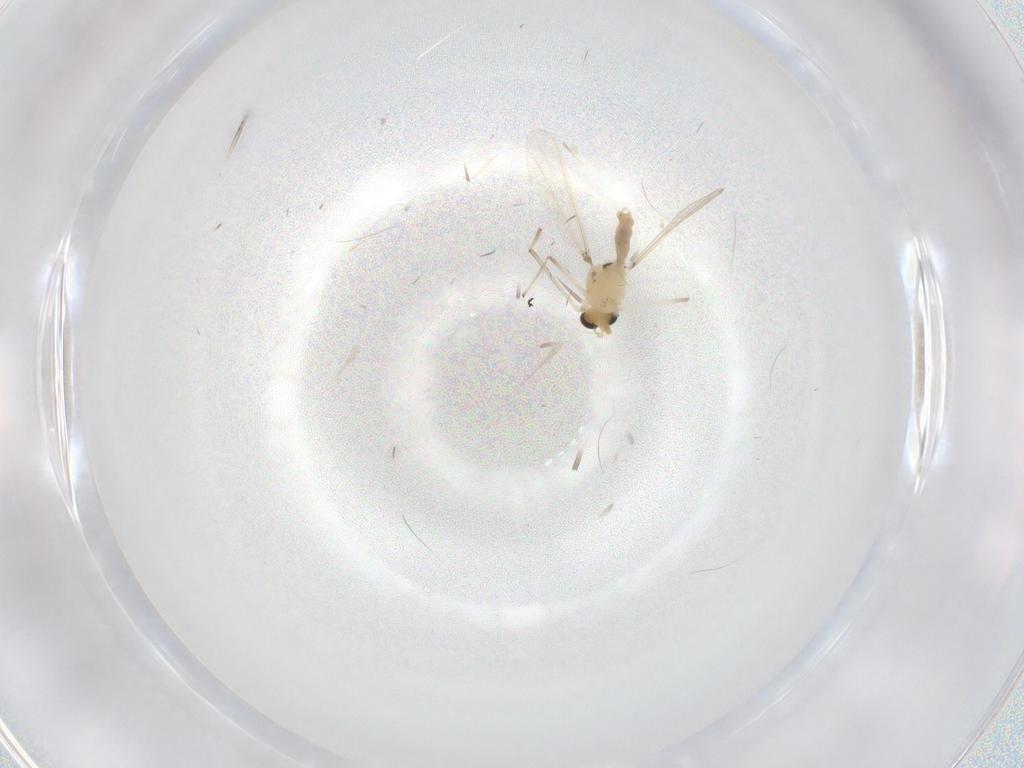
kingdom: Animalia
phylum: Arthropoda
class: Insecta
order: Diptera
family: Chironomidae
